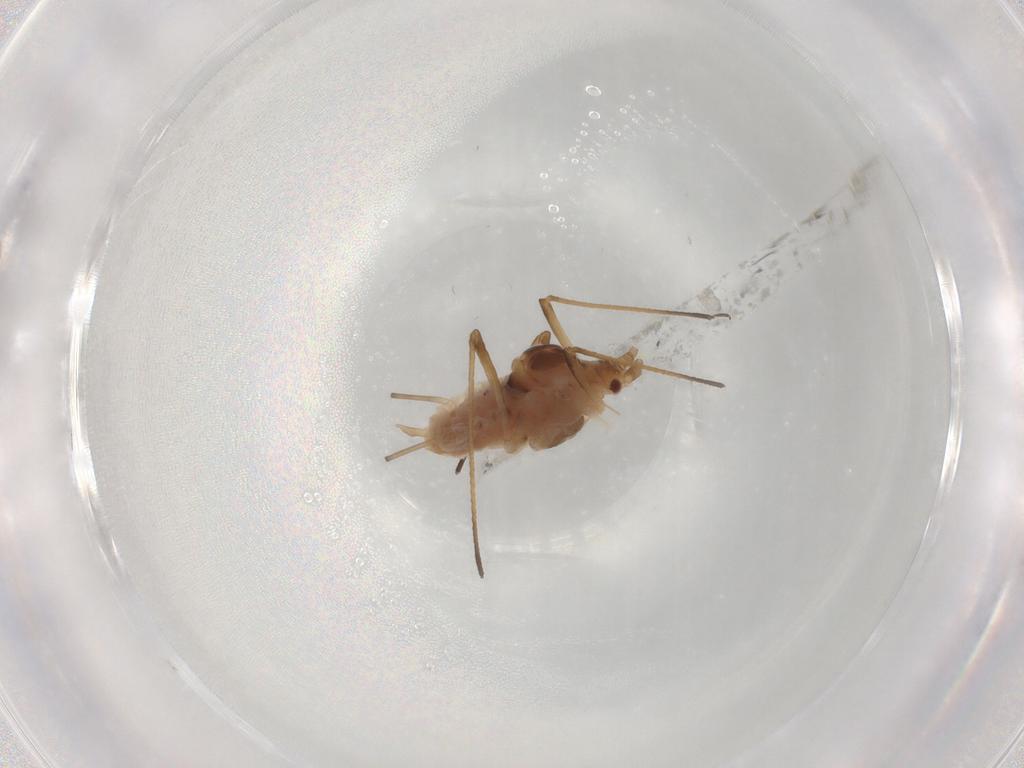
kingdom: Animalia
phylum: Arthropoda
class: Insecta
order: Hemiptera
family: Aphididae
